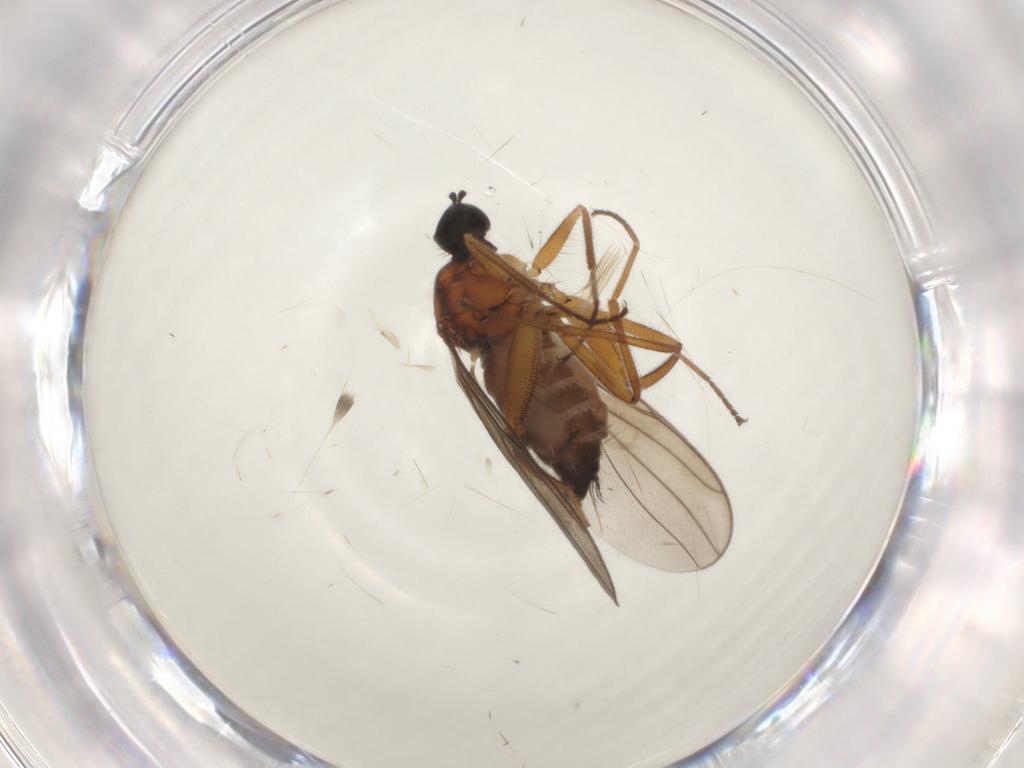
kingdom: Animalia
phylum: Arthropoda
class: Insecta
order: Diptera
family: Hybotidae
